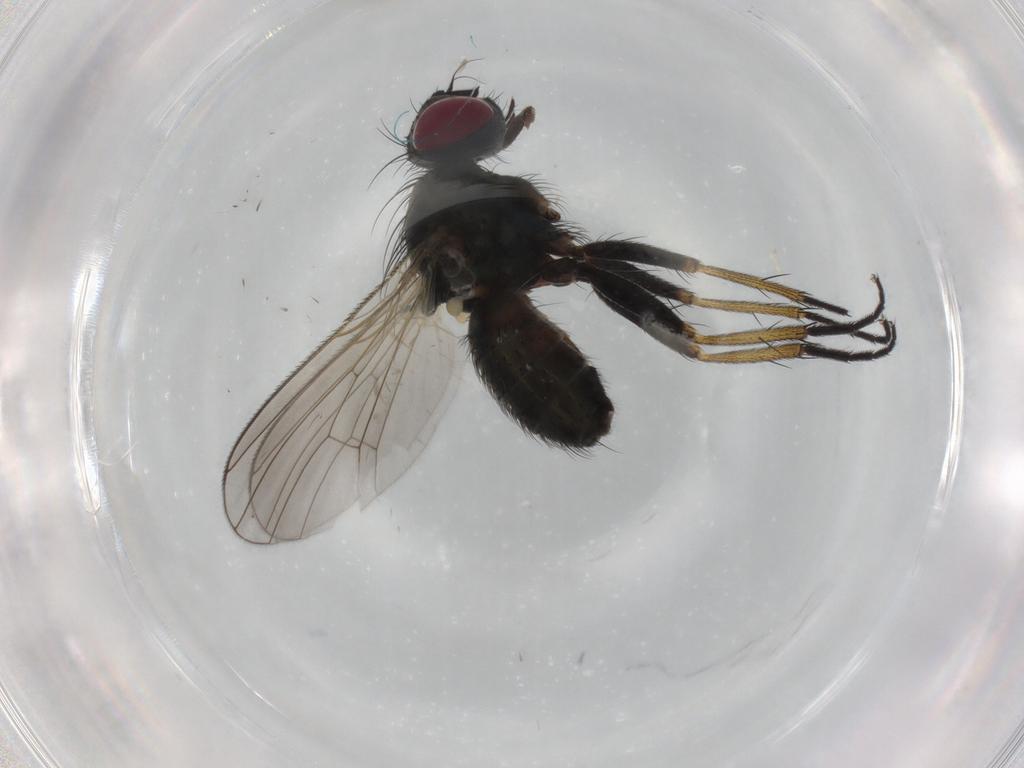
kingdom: Animalia
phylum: Arthropoda
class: Insecta
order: Diptera
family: Muscidae
